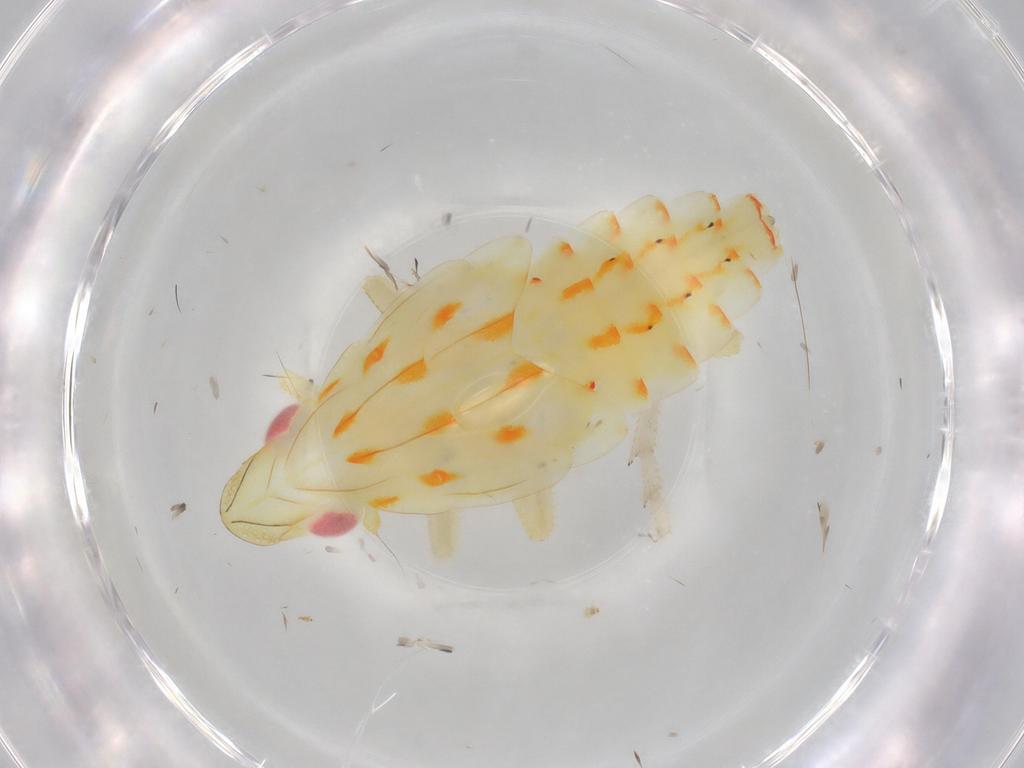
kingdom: Animalia
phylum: Arthropoda
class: Insecta
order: Hemiptera
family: Tropiduchidae
